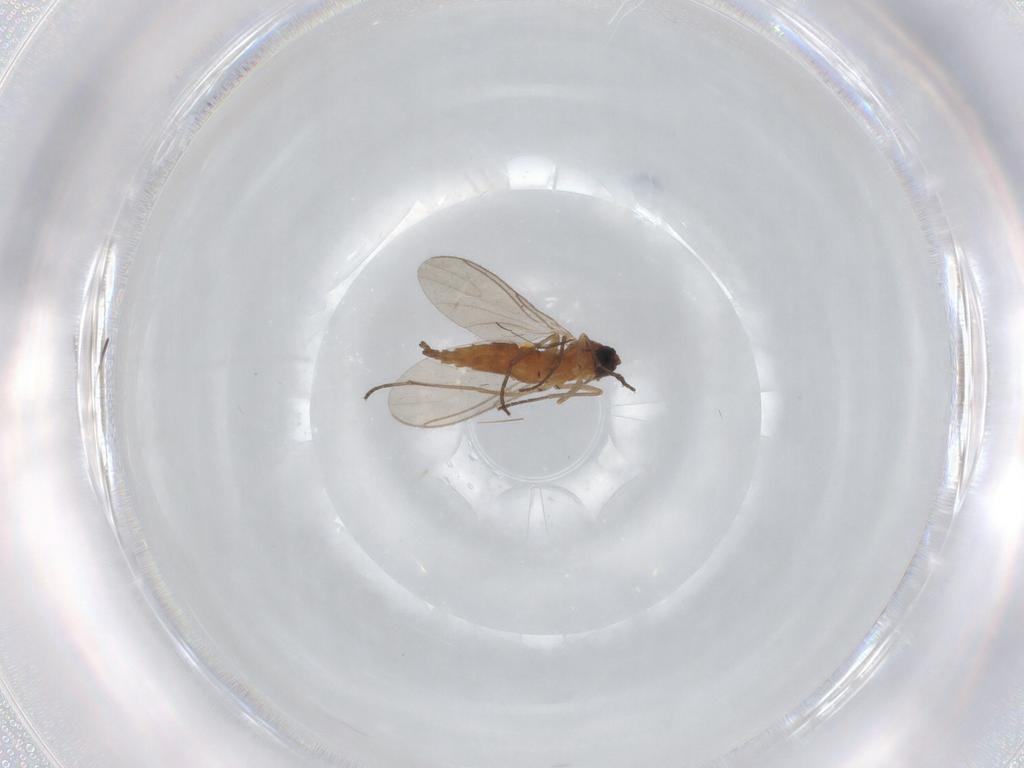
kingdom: Animalia
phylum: Arthropoda
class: Insecta
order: Diptera
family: Sciaridae
